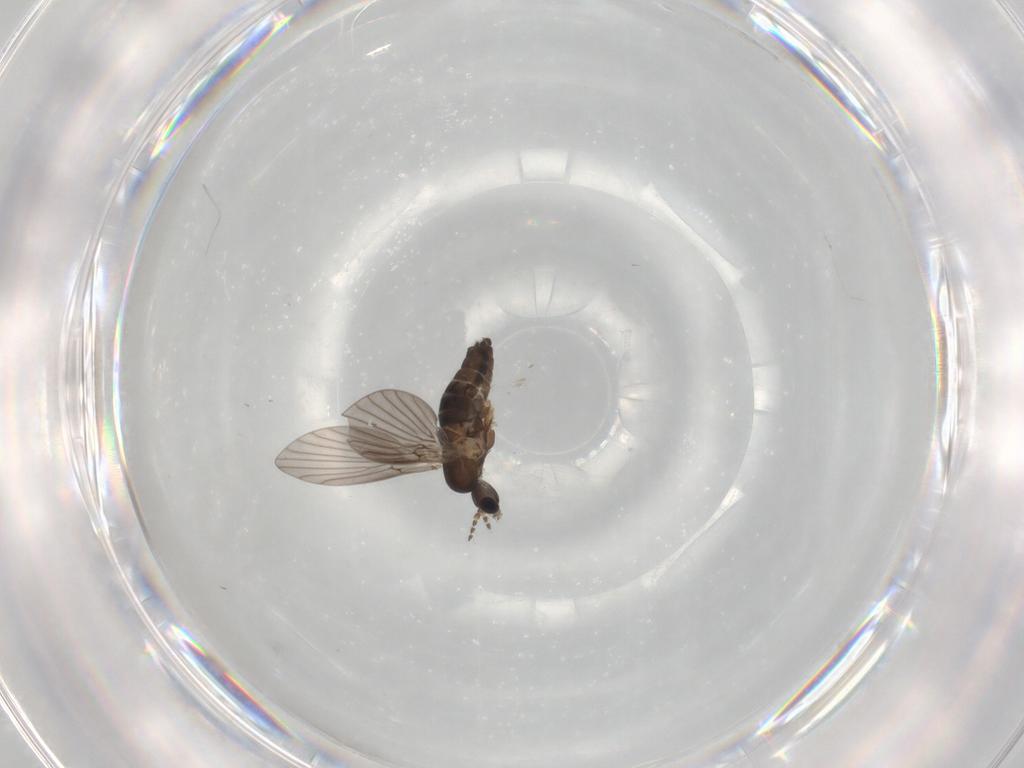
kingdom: Animalia
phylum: Arthropoda
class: Insecta
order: Diptera
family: Cecidomyiidae
